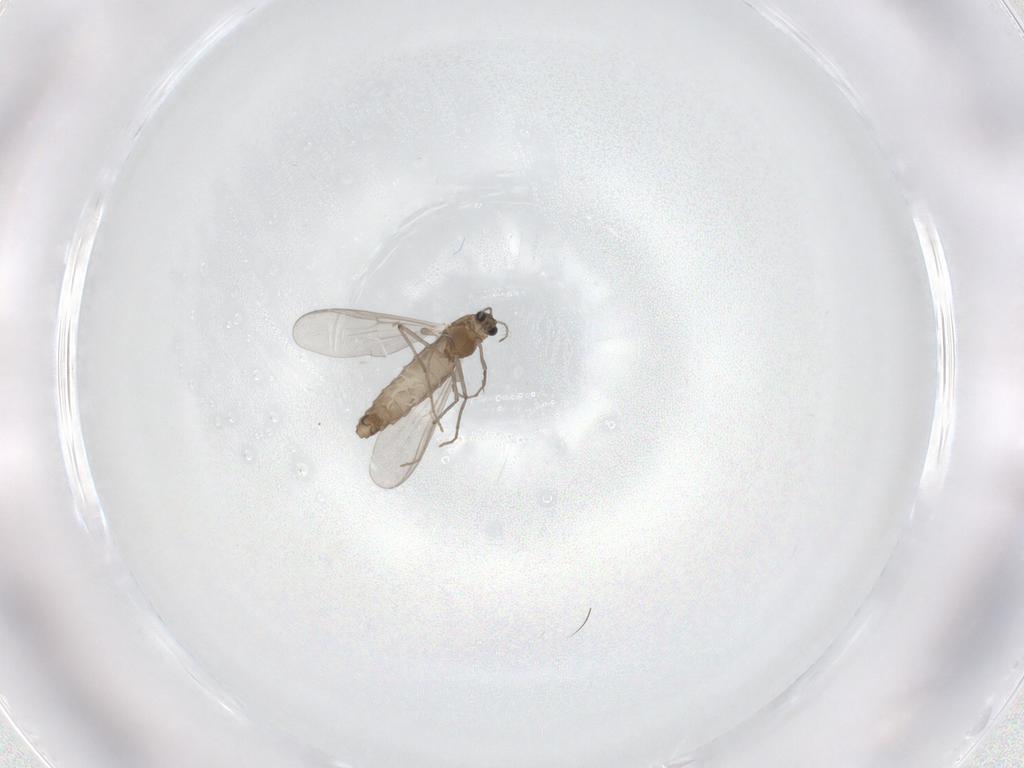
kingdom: Animalia
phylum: Arthropoda
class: Insecta
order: Diptera
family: Chironomidae
